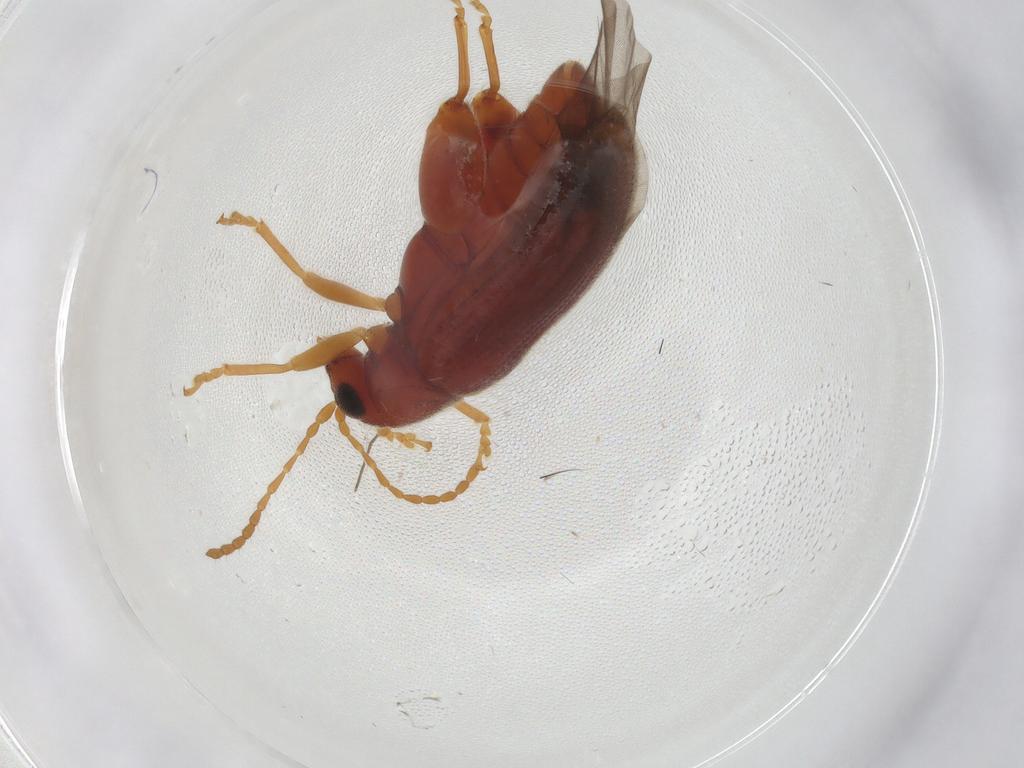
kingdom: Animalia
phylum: Arthropoda
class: Insecta
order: Coleoptera
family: Chrysomelidae
